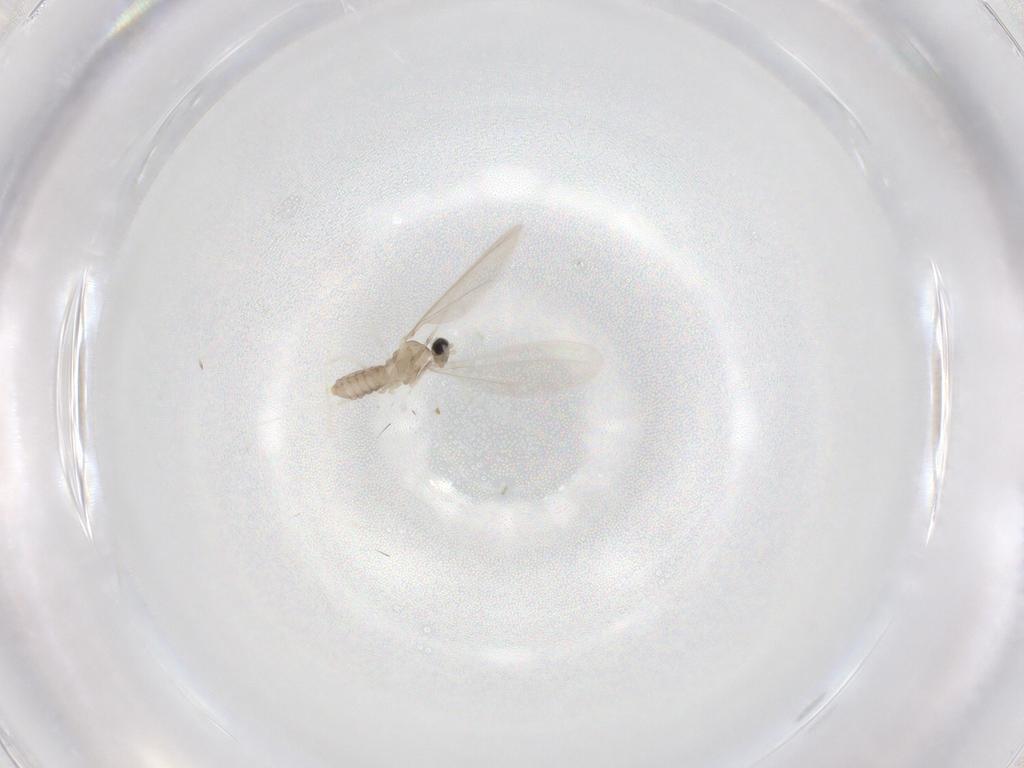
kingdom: Animalia
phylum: Arthropoda
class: Insecta
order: Diptera
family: Cecidomyiidae
